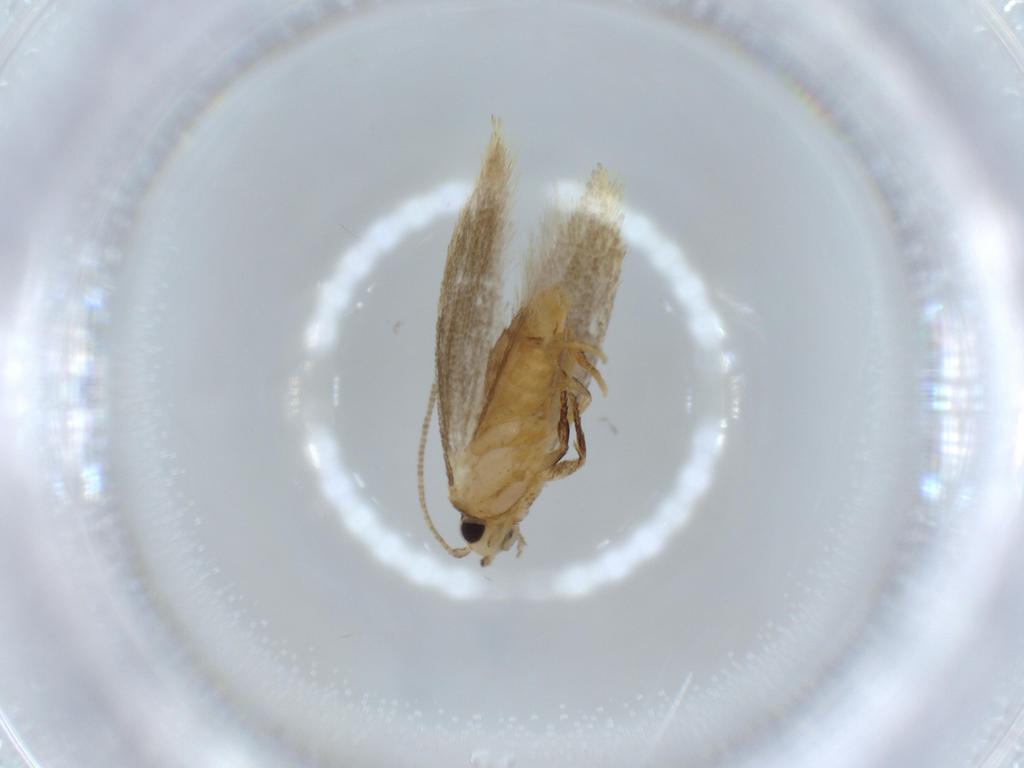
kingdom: Animalia
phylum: Arthropoda
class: Insecta
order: Lepidoptera
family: Tineidae
